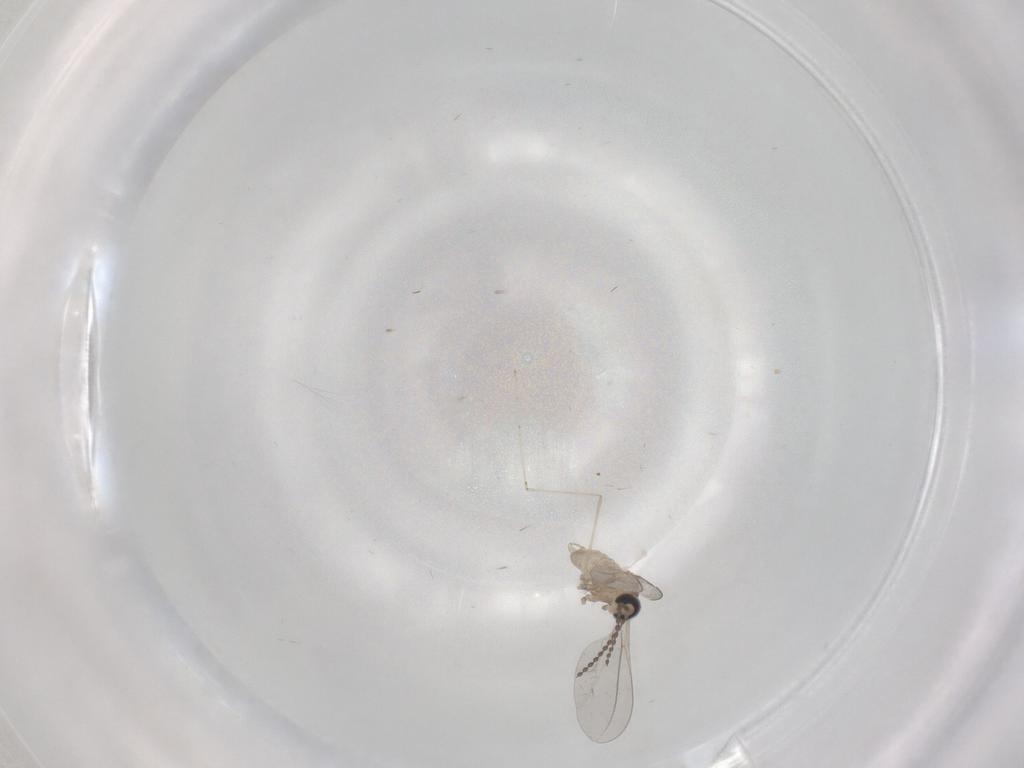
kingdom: Animalia
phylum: Arthropoda
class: Insecta
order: Diptera
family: Cecidomyiidae
